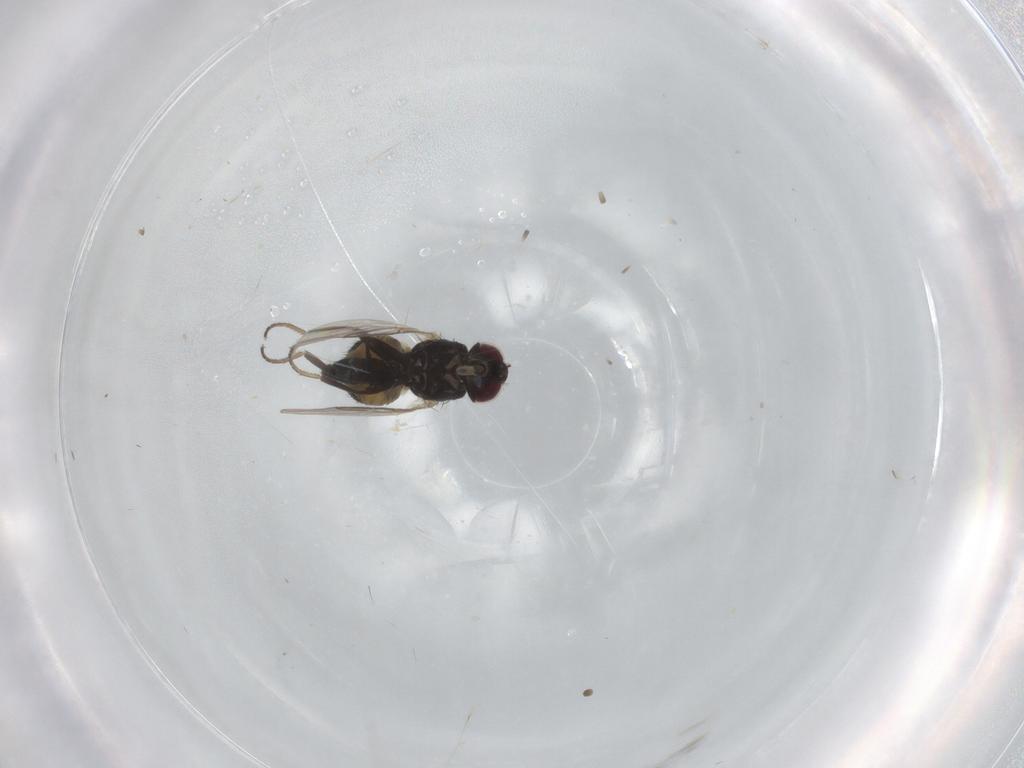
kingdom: Animalia
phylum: Arthropoda
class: Insecta
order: Diptera
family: Agromyzidae
